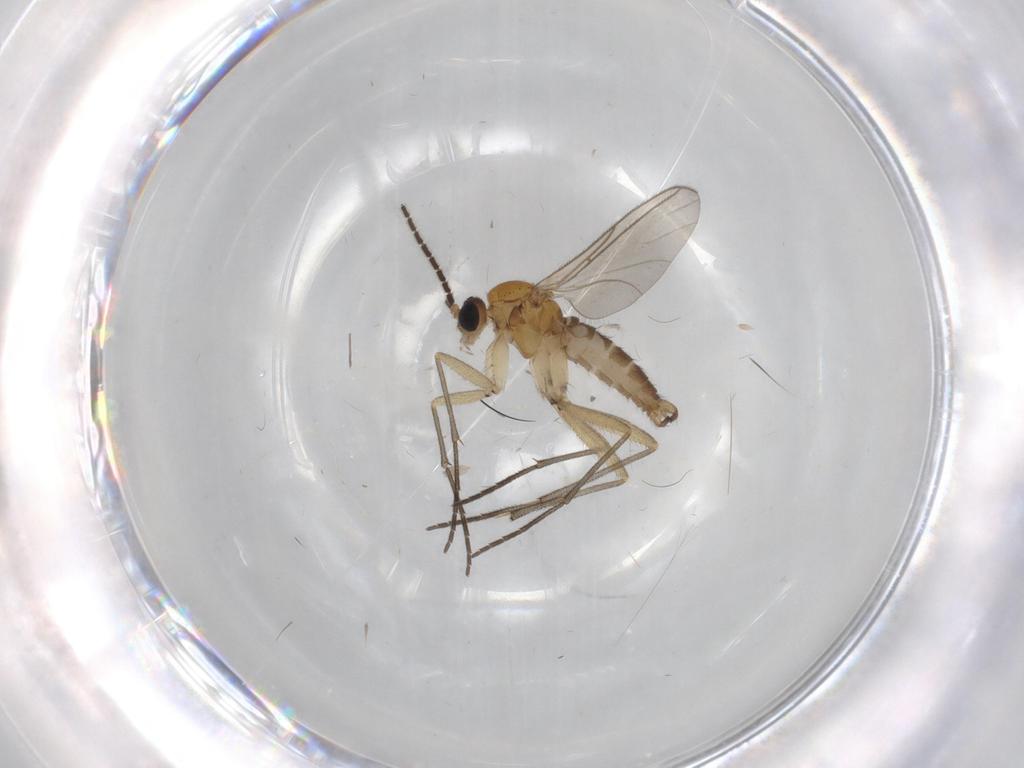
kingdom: Animalia
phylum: Arthropoda
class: Insecta
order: Diptera
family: Sciaridae
